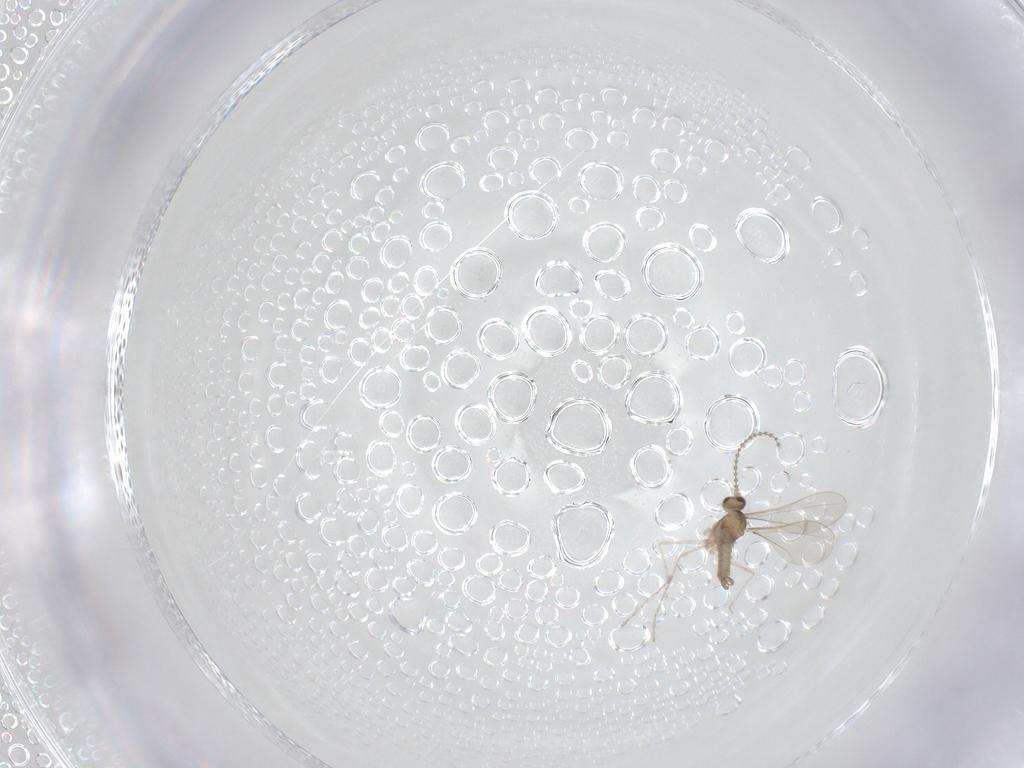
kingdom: Animalia
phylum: Arthropoda
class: Insecta
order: Diptera
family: Cecidomyiidae
